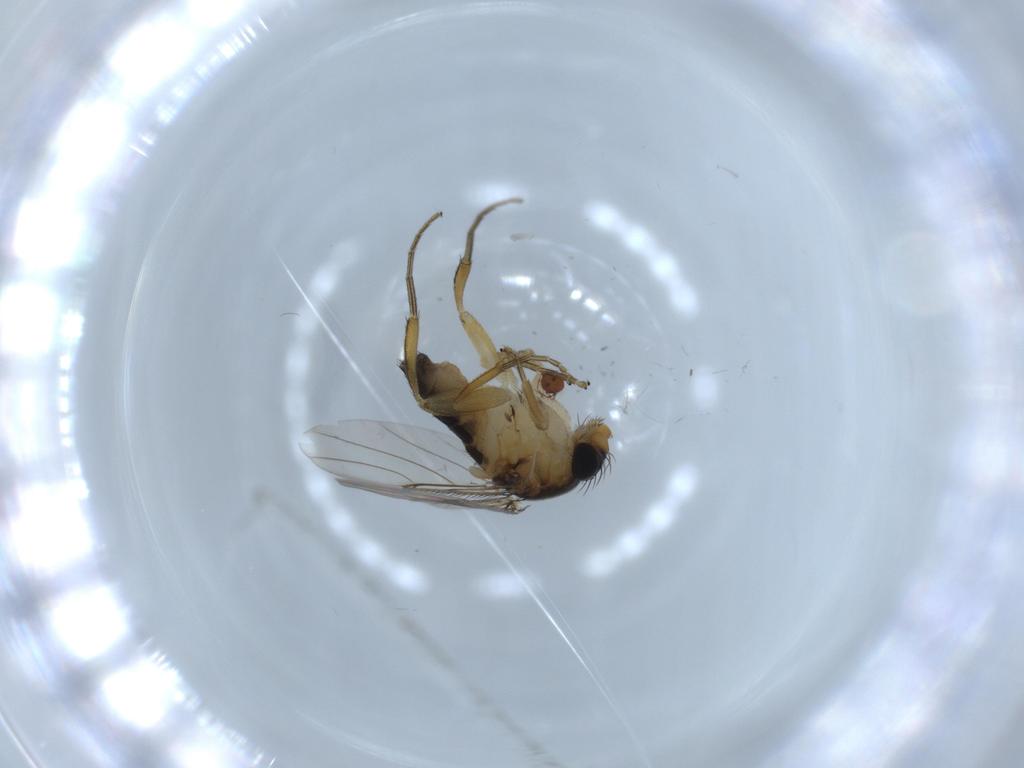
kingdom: Animalia
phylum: Arthropoda
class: Insecta
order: Diptera
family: Phoridae
